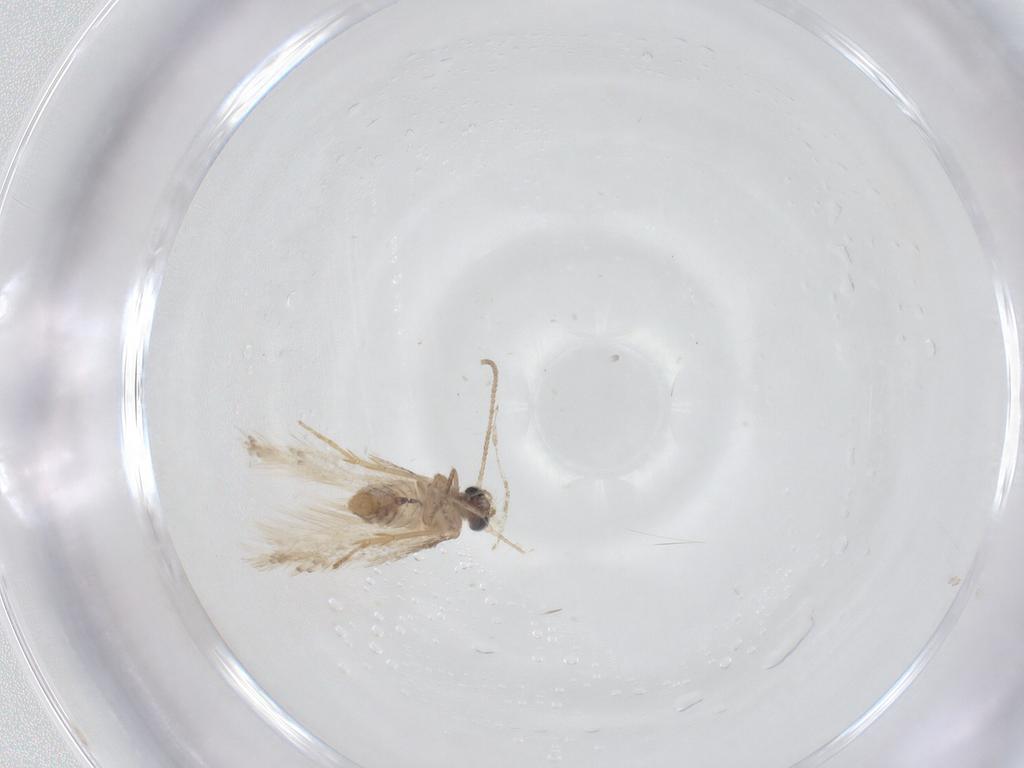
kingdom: Animalia
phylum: Arthropoda
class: Insecta
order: Lepidoptera
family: Nepticulidae
